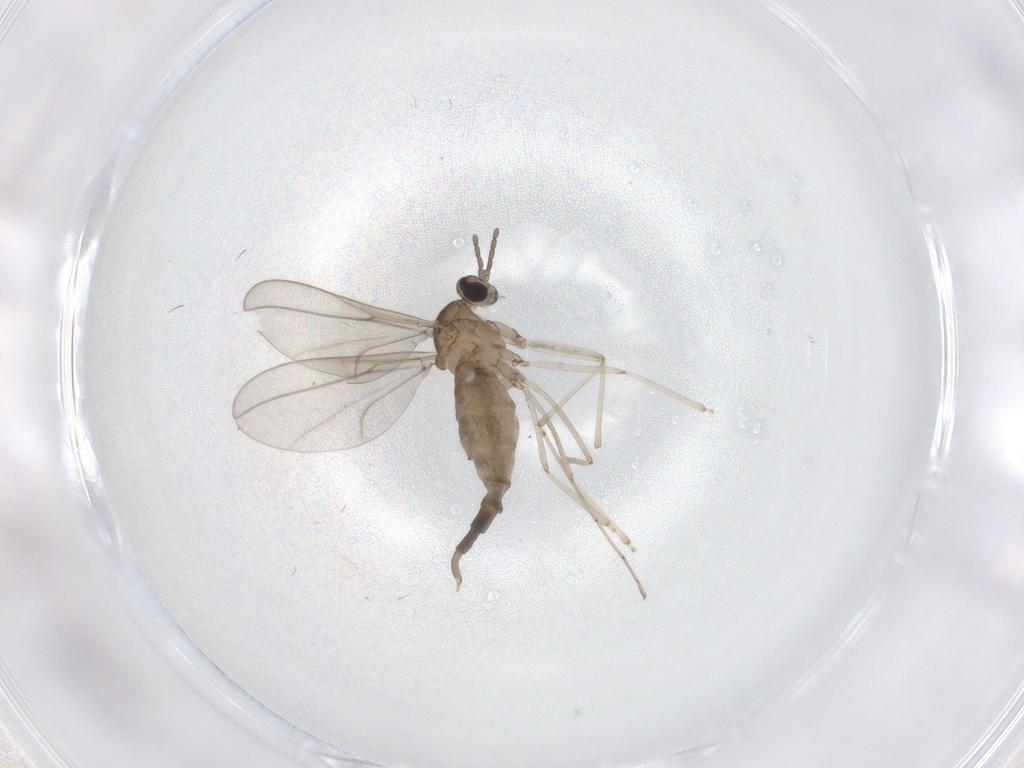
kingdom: Animalia
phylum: Arthropoda
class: Insecta
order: Diptera
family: Cecidomyiidae
